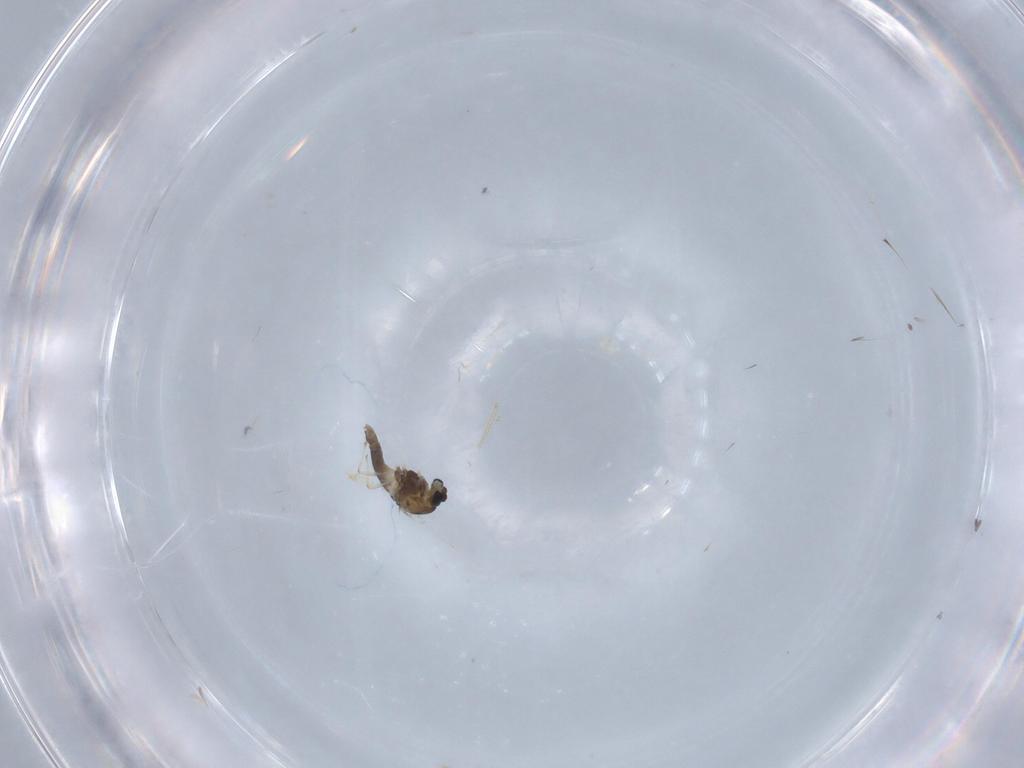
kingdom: Animalia
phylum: Arthropoda
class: Insecta
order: Diptera
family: Chironomidae
